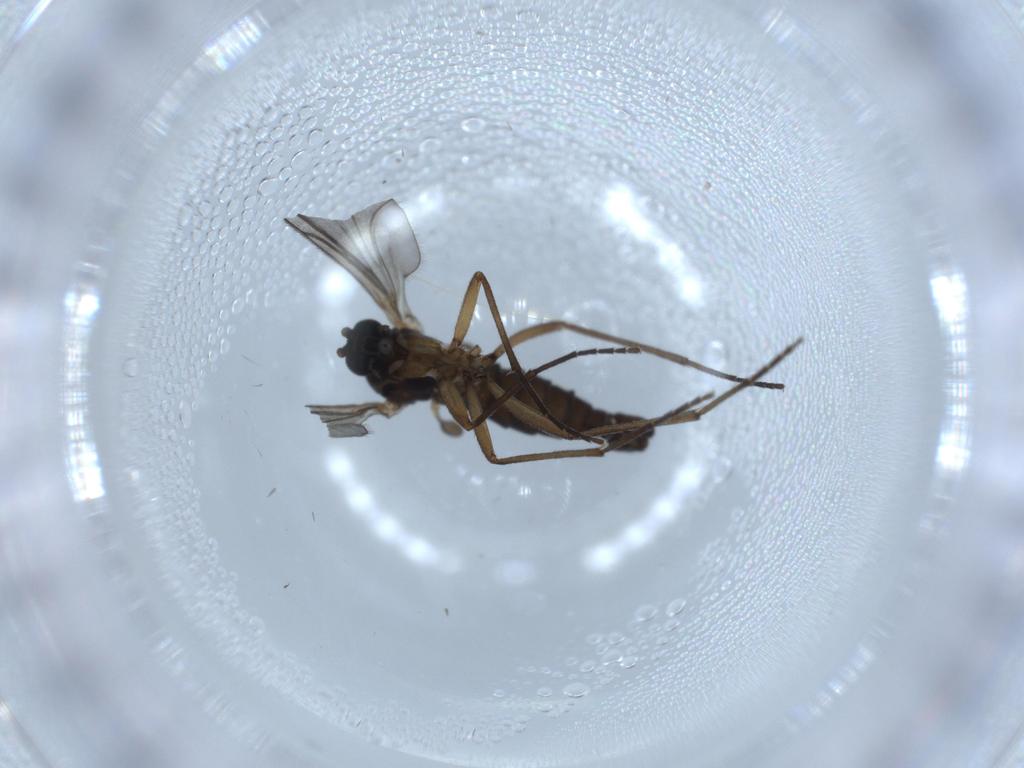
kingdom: Animalia
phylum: Arthropoda
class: Insecta
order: Diptera
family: Sciaridae
